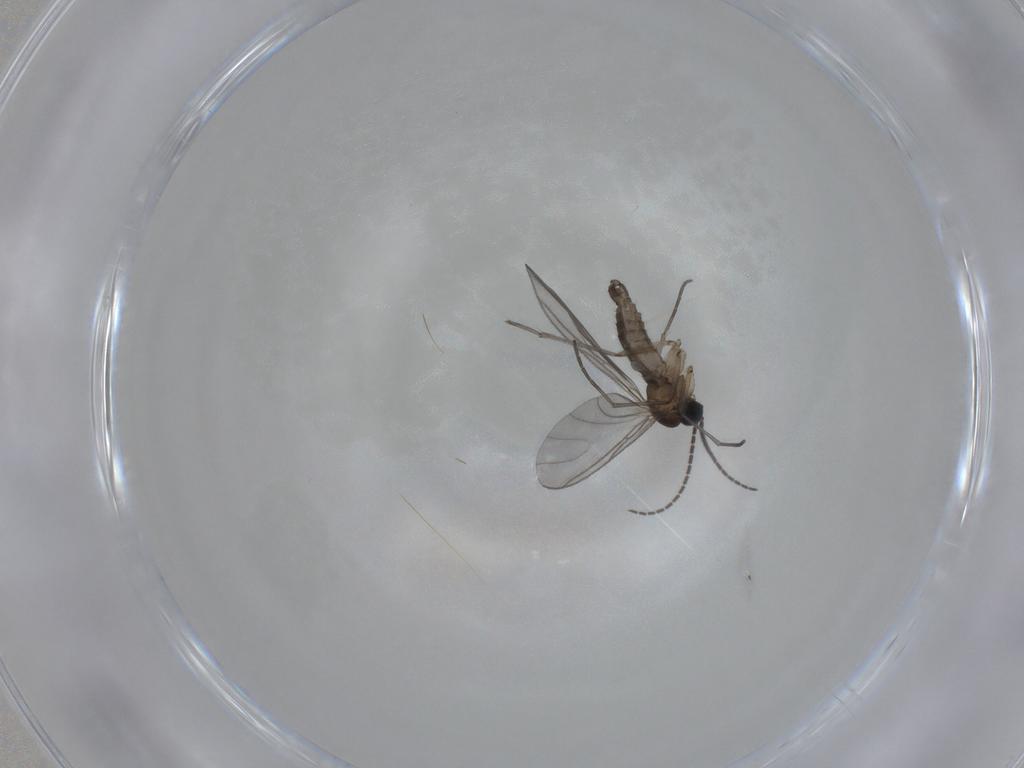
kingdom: Animalia
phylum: Arthropoda
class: Insecta
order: Diptera
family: Sciaridae
